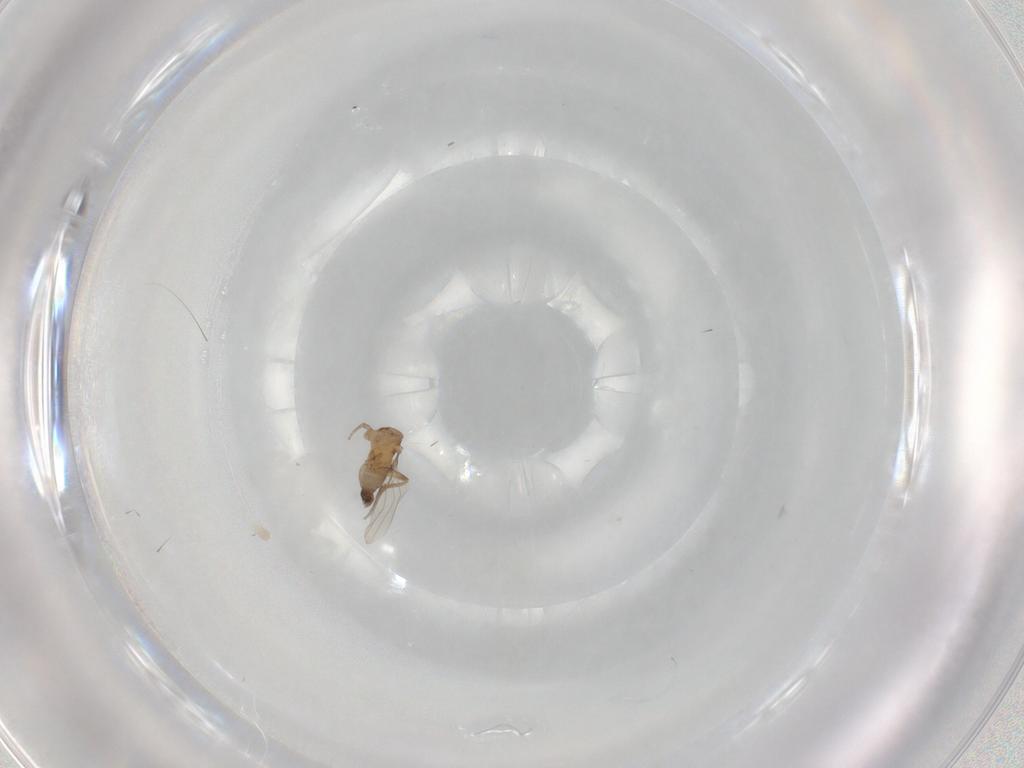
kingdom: Animalia
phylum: Arthropoda
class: Insecta
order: Diptera
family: Phoridae
